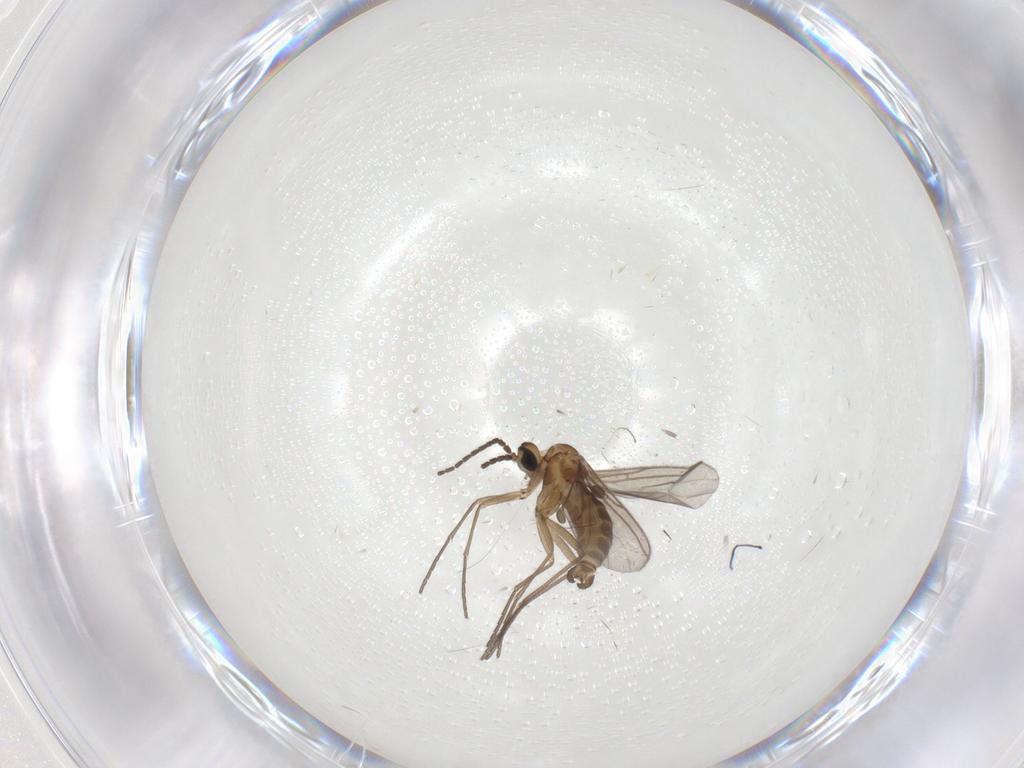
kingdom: Animalia
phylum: Arthropoda
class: Insecta
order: Diptera
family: Sciaridae
